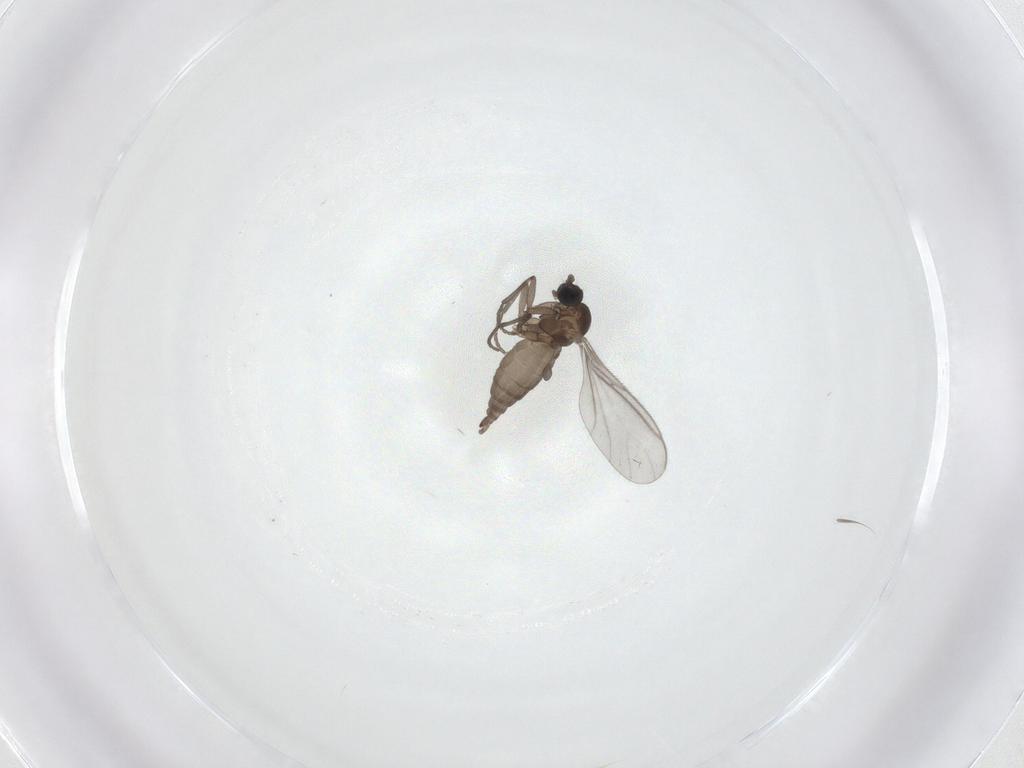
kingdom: Animalia
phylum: Arthropoda
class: Insecta
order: Diptera
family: Sciaridae
